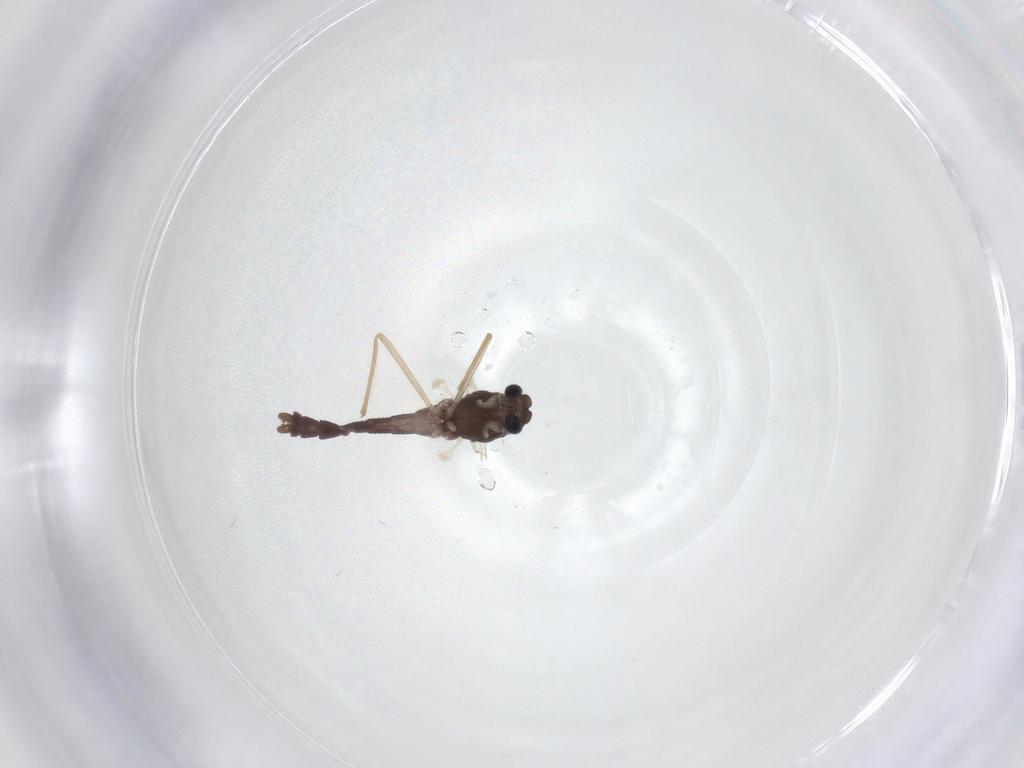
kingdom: Animalia
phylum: Arthropoda
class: Insecta
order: Diptera
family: Chironomidae
